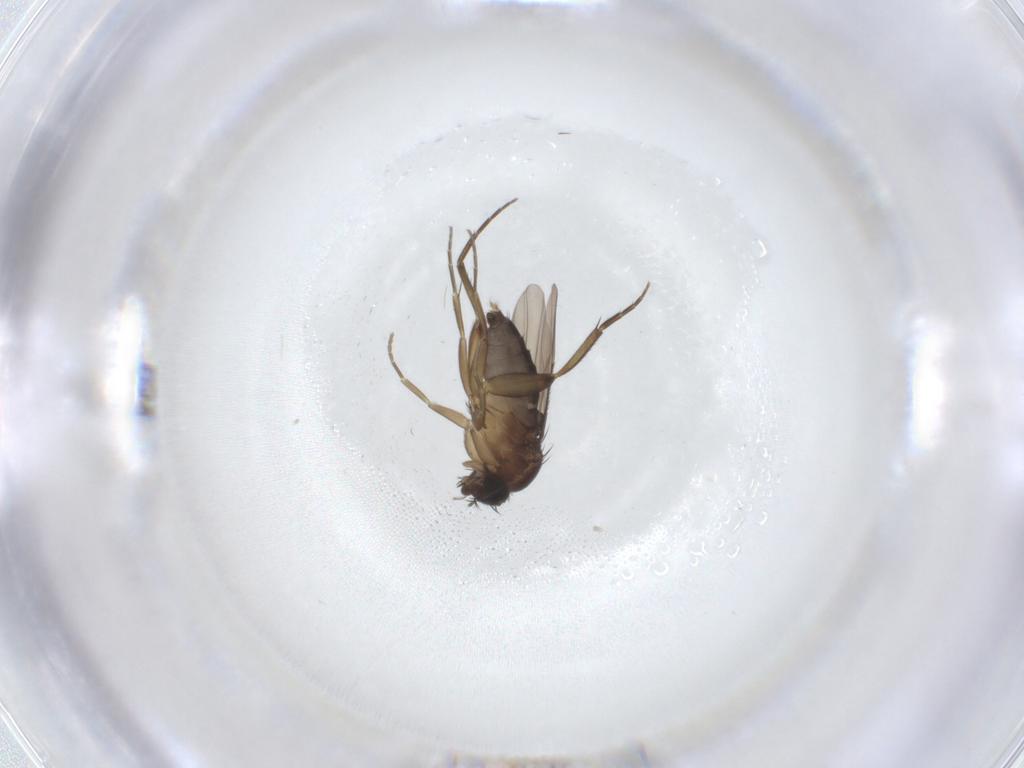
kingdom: Animalia
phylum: Arthropoda
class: Insecta
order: Diptera
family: Phoridae
